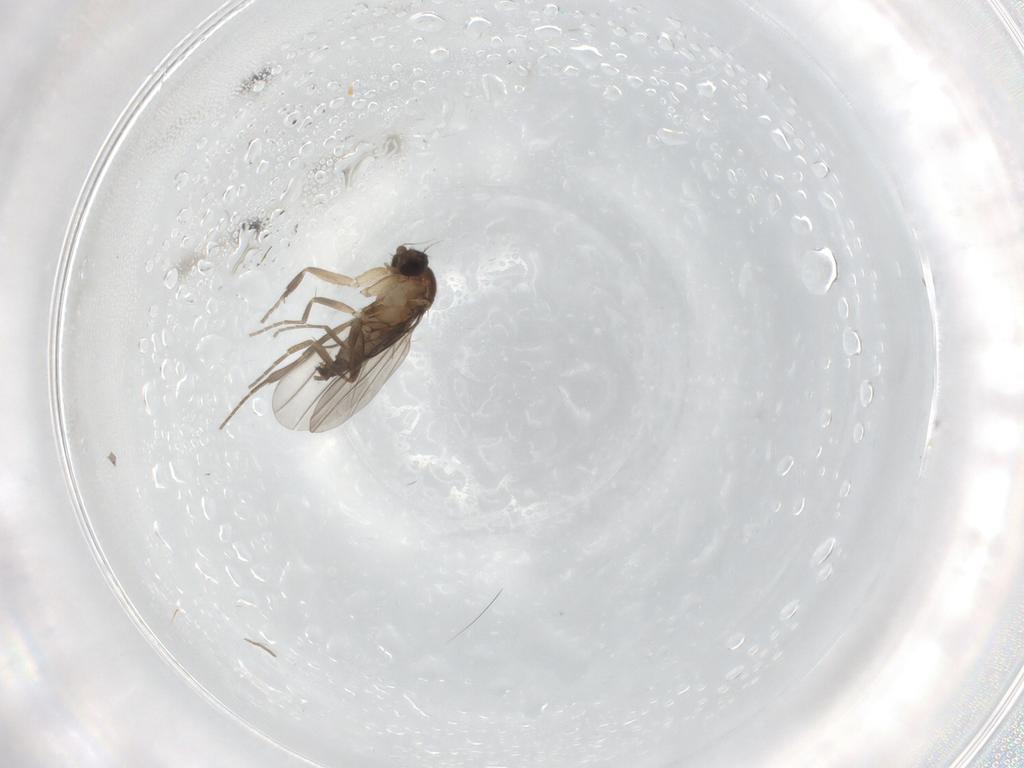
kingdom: Animalia
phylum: Arthropoda
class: Insecta
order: Diptera
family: Phoridae
